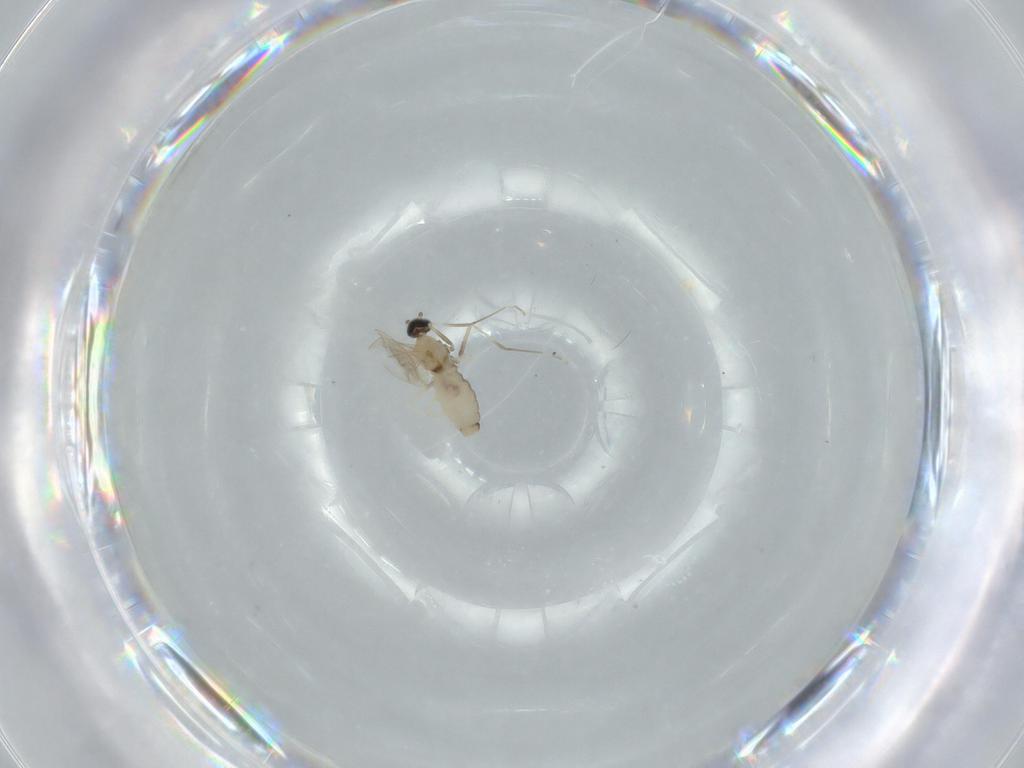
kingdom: Animalia
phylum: Arthropoda
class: Insecta
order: Diptera
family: Cecidomyiidae
